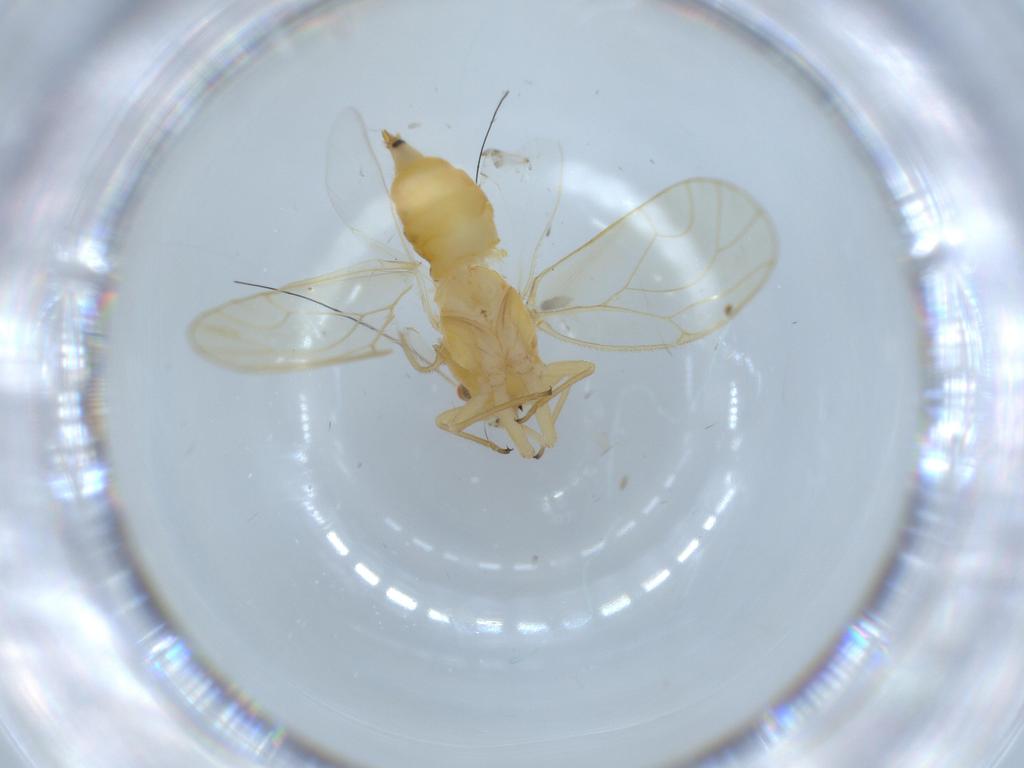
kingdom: Animalia
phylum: Arthropoda
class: Insecta
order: Hemiptera
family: Psyllidae
